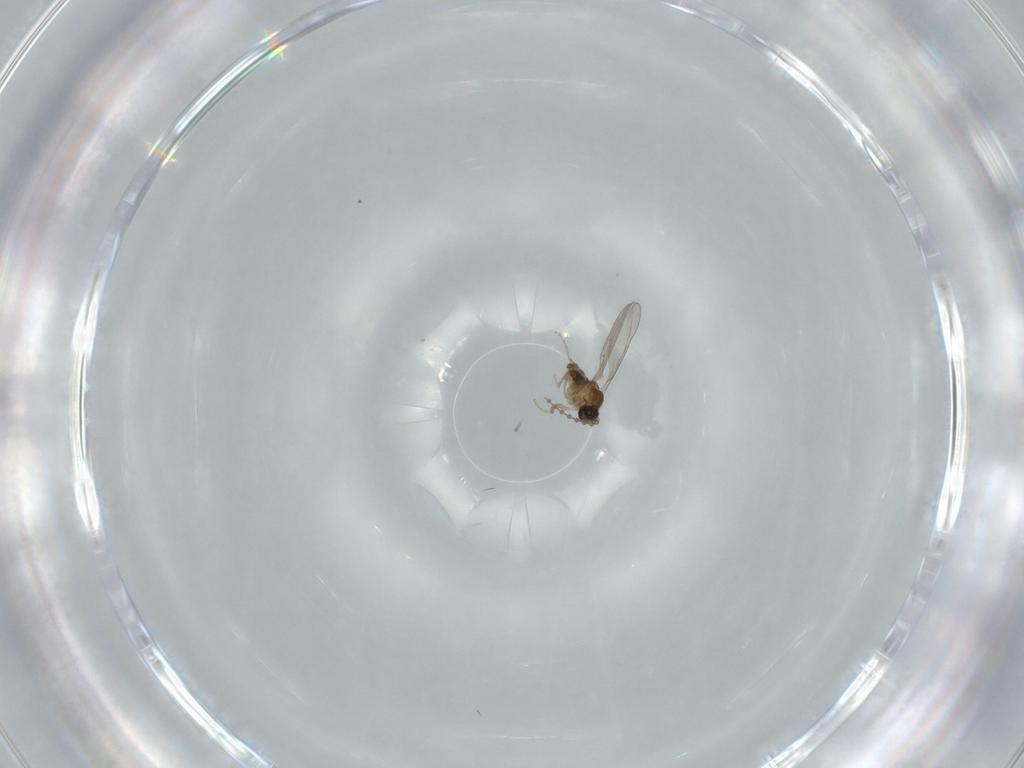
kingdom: Animalia
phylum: Arthropoda
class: Insecta
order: Diptera
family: Cecidomyiidae
